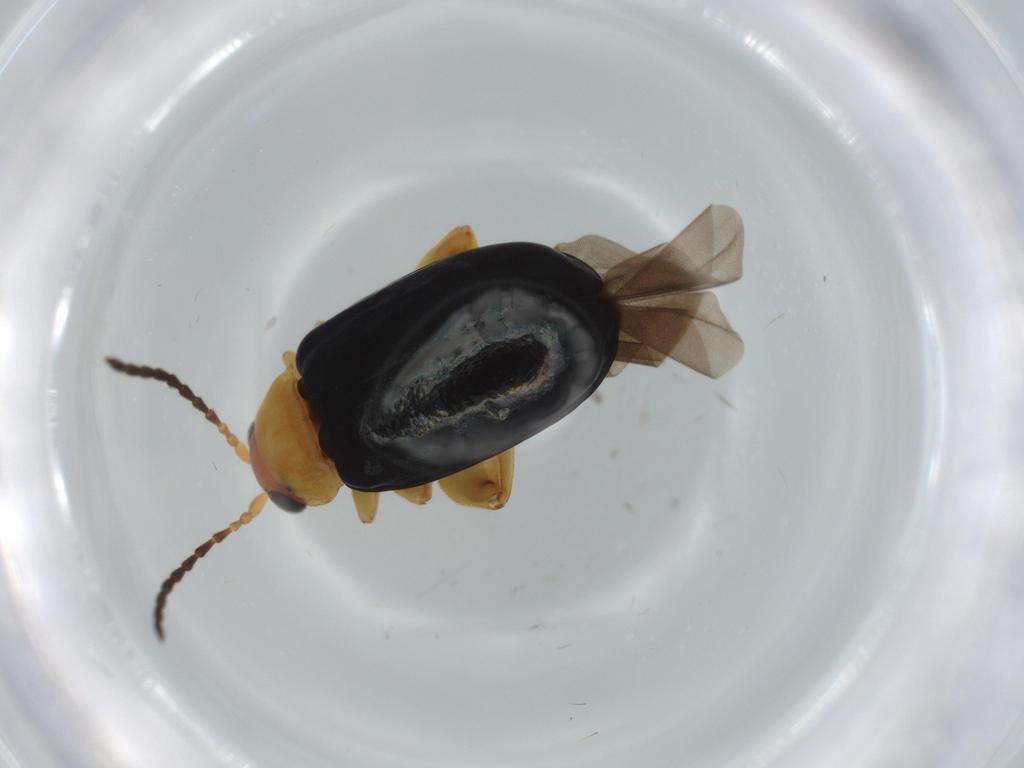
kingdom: Animalia
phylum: Arthropoda
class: Insecta
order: Coleoptera
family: Chrysomelidae
